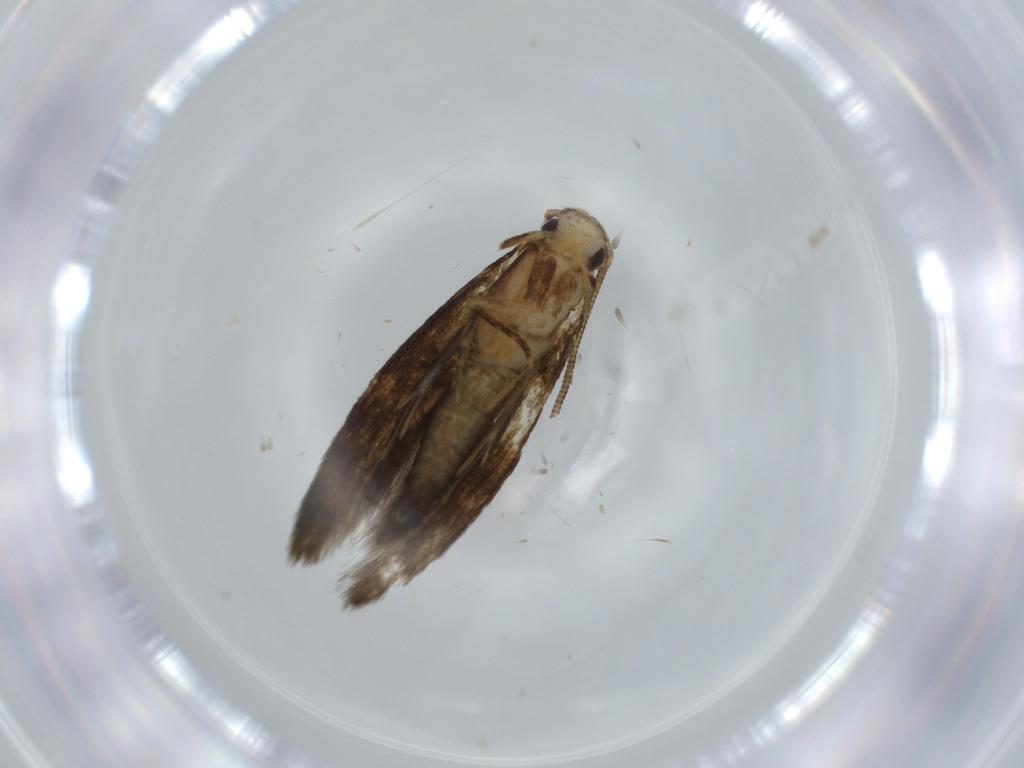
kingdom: Animalia
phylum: Arthropoda
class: Insecta
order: Lepidoptera
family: Tineidae
